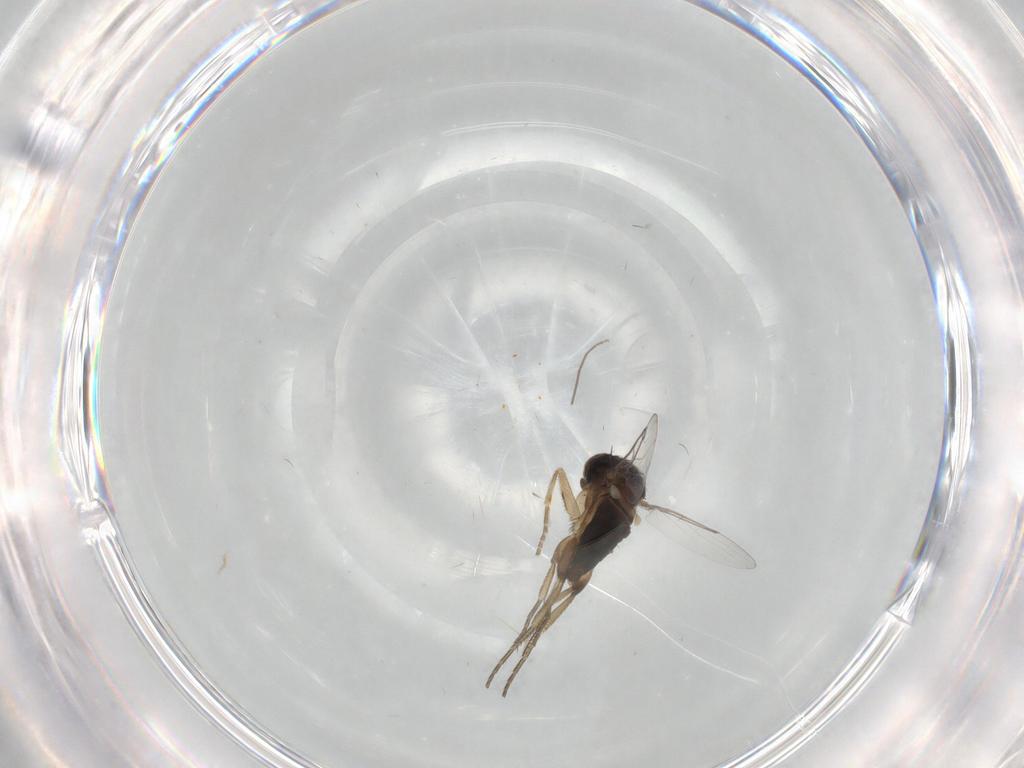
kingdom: Animalia
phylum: Arthropoda
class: Insecta
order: Diptera
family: Phoridae
